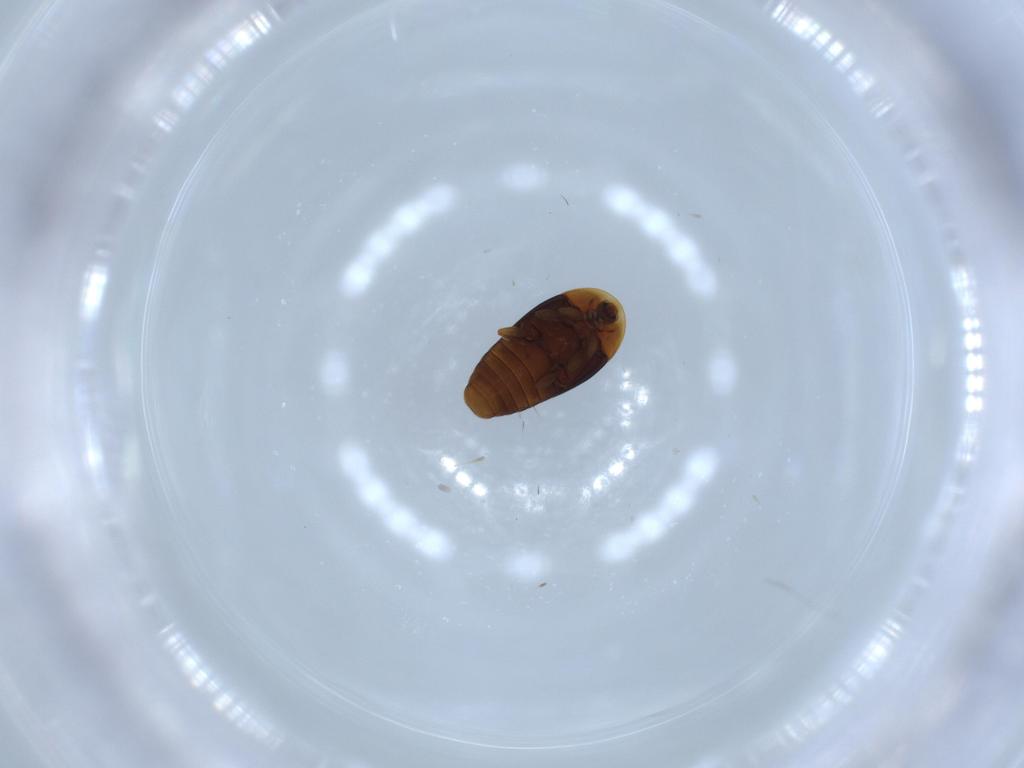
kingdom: Animalia
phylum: Arthropoda
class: Insecta
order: Coleoptera
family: Corylophidae
